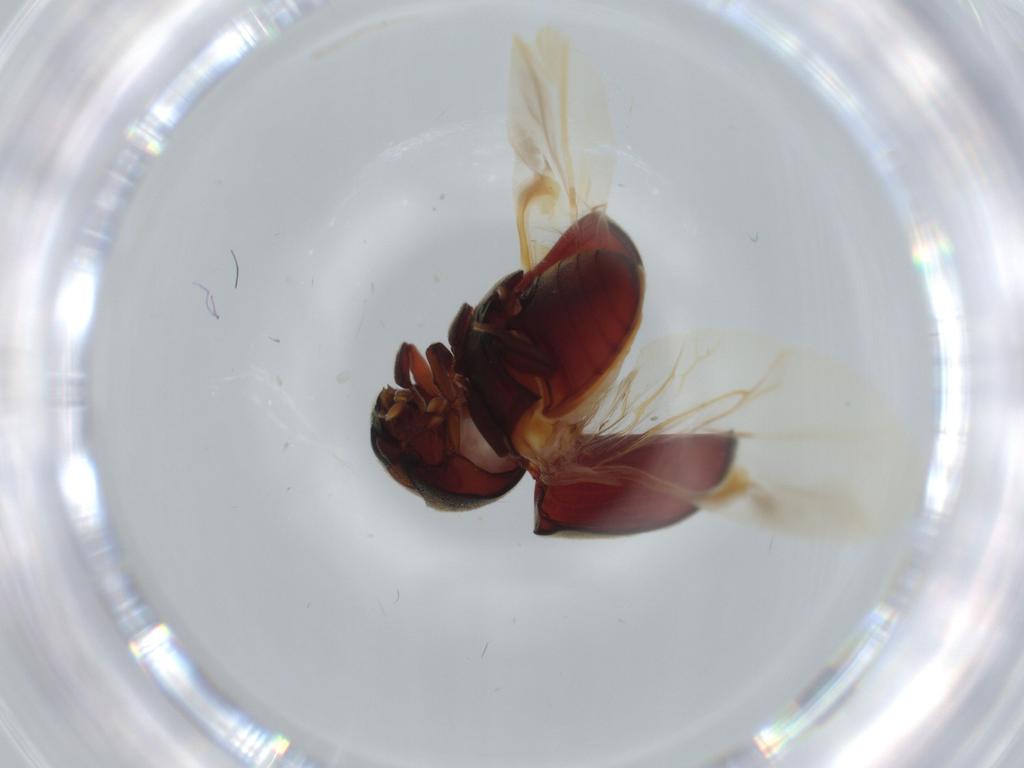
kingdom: Animalia
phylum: Arthropoda
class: Insecta
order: Coleoptera
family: Ptinidae
